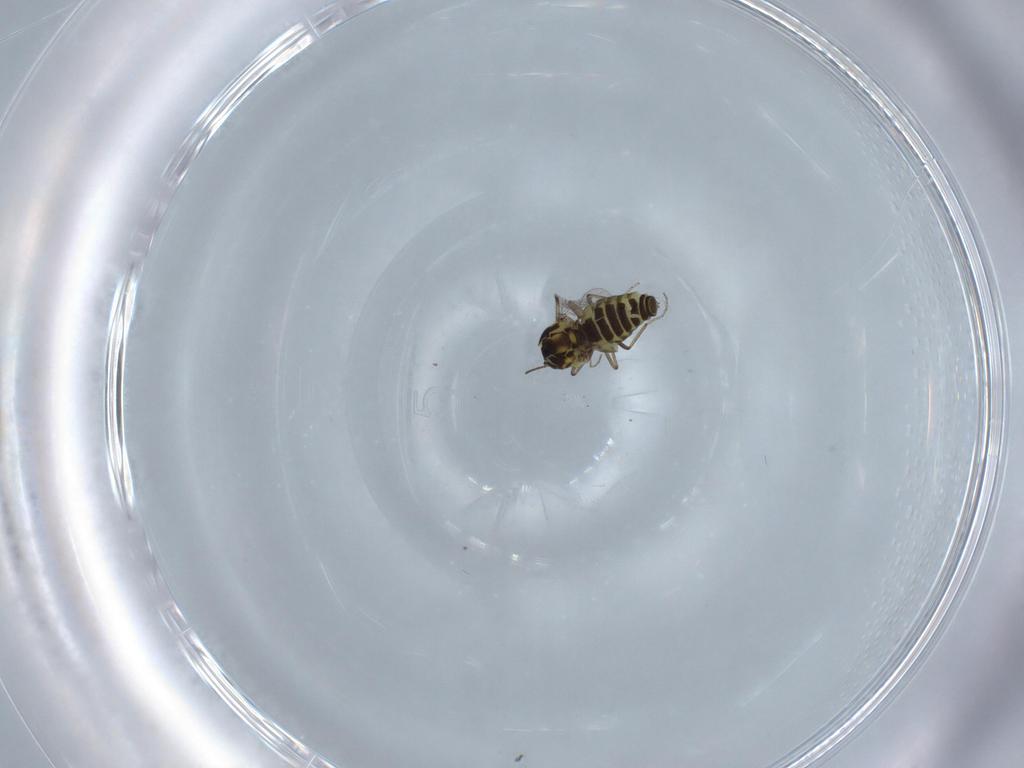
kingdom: Animalia
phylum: Arthropoda
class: Insecta
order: Diptera
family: Ceratopogonidae
